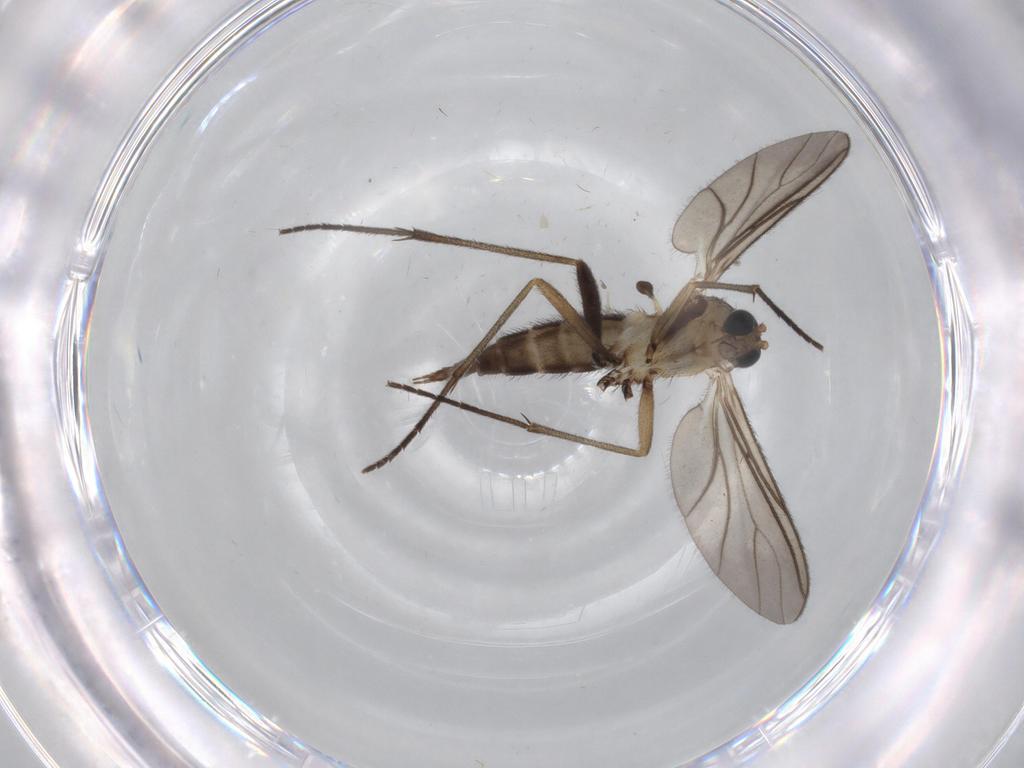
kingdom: Animalia
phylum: Arthropoda
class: Insecta
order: Diptera
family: Sciaridae
